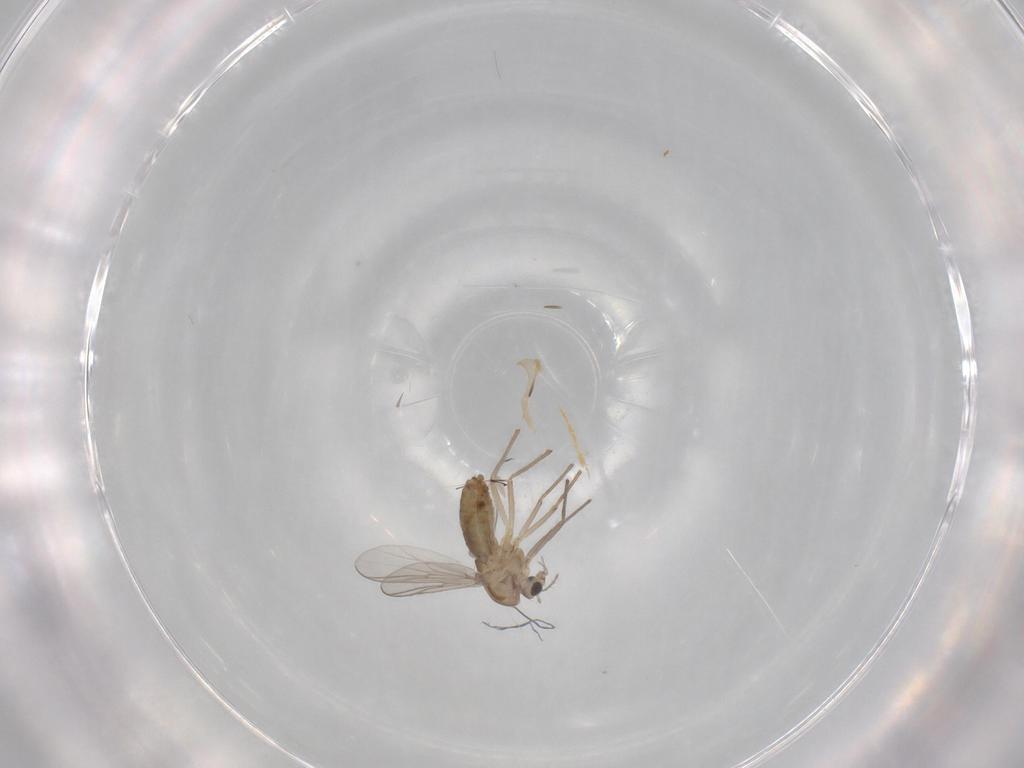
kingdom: Animalia
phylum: Arthropoda
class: Insecta
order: Diptera
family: Chironomidae
